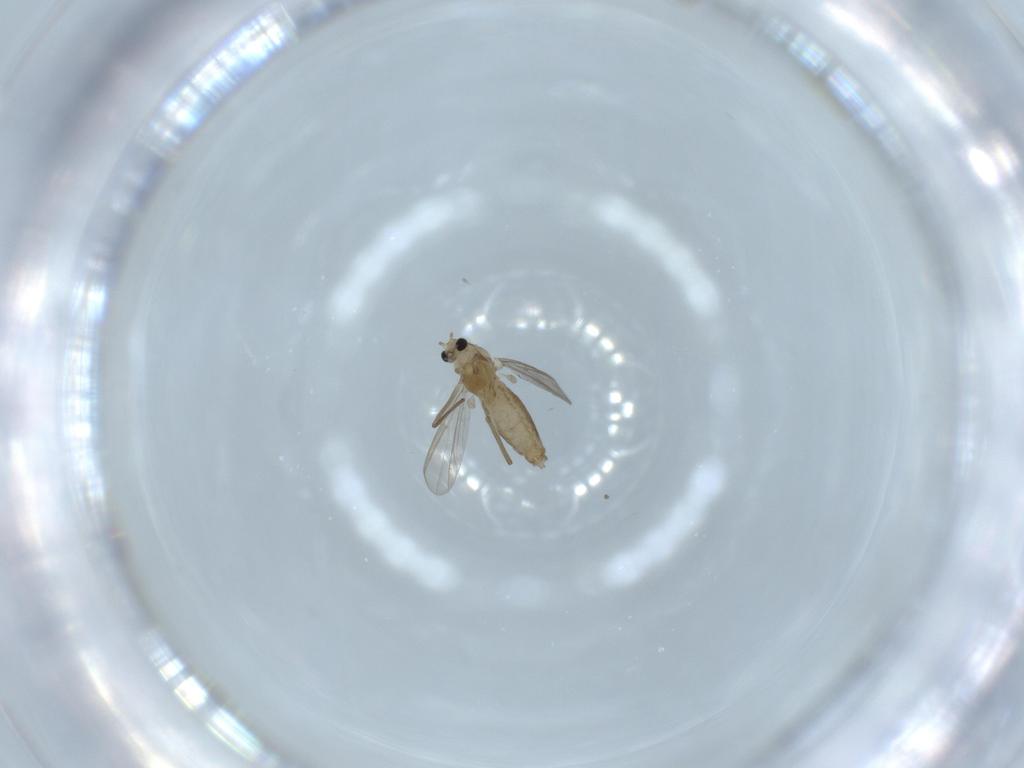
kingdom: Animalia
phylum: Arthropoda
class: Insecta
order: Diptera
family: Chironomidae
